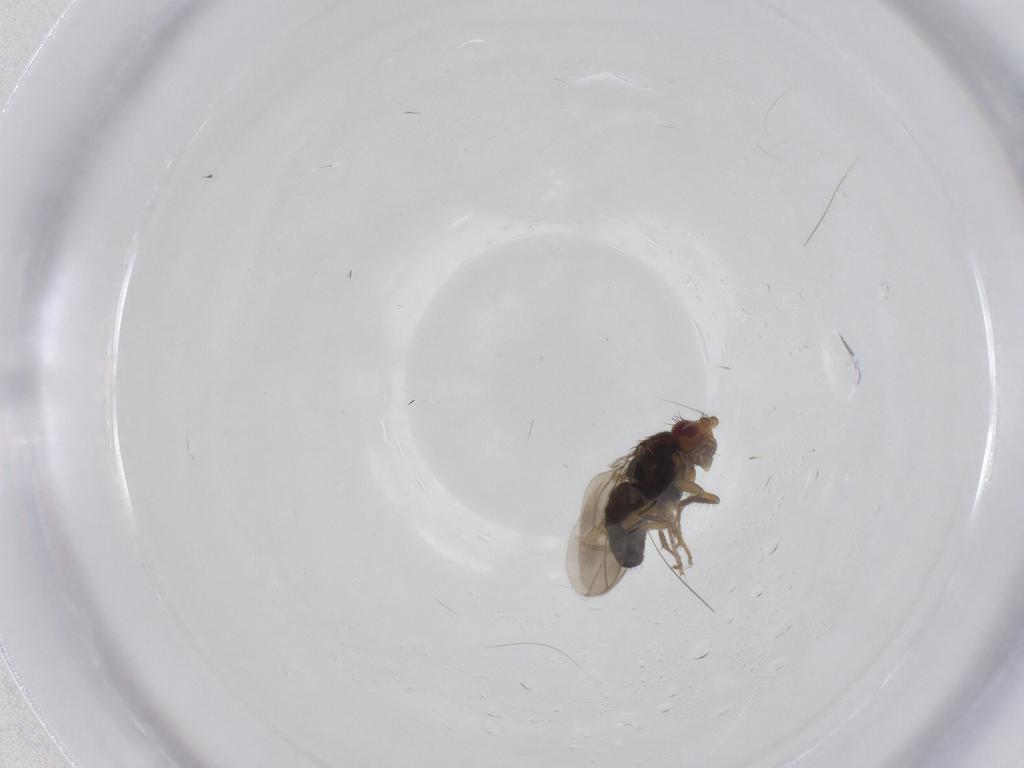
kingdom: Animalia
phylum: Arthropoda
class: Insecta
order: Diptera
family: Sphaeroceridae
